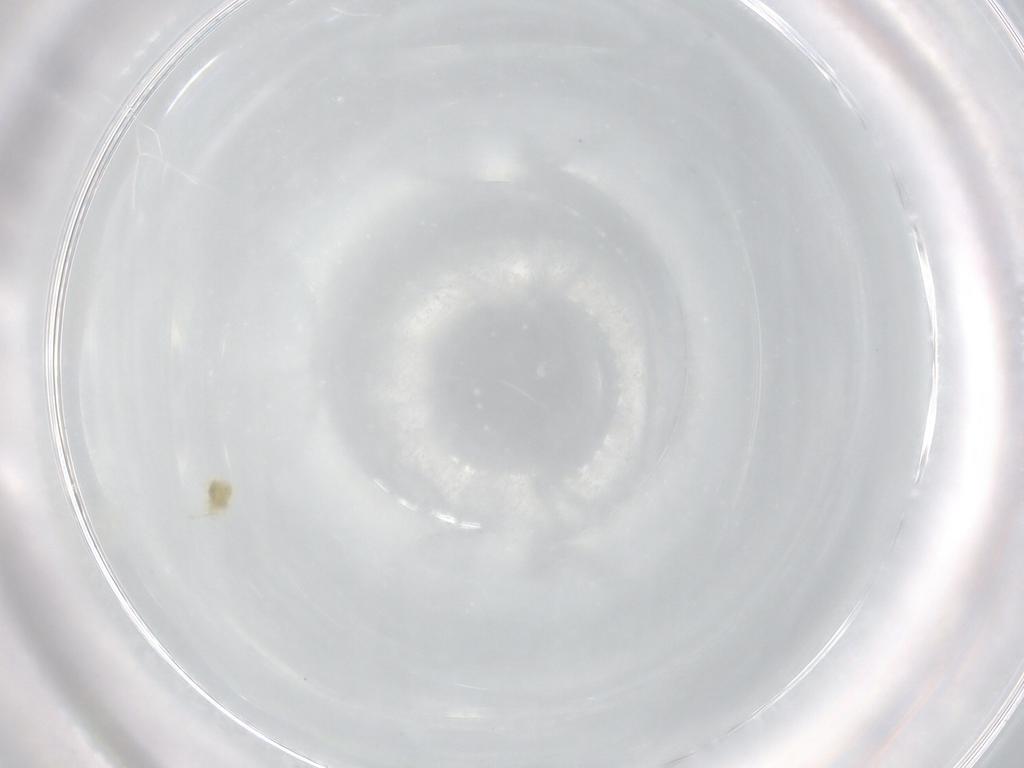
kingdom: Animalia
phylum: Arthropoda
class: Arachnida
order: Trombidiformes
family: Eupodidae
